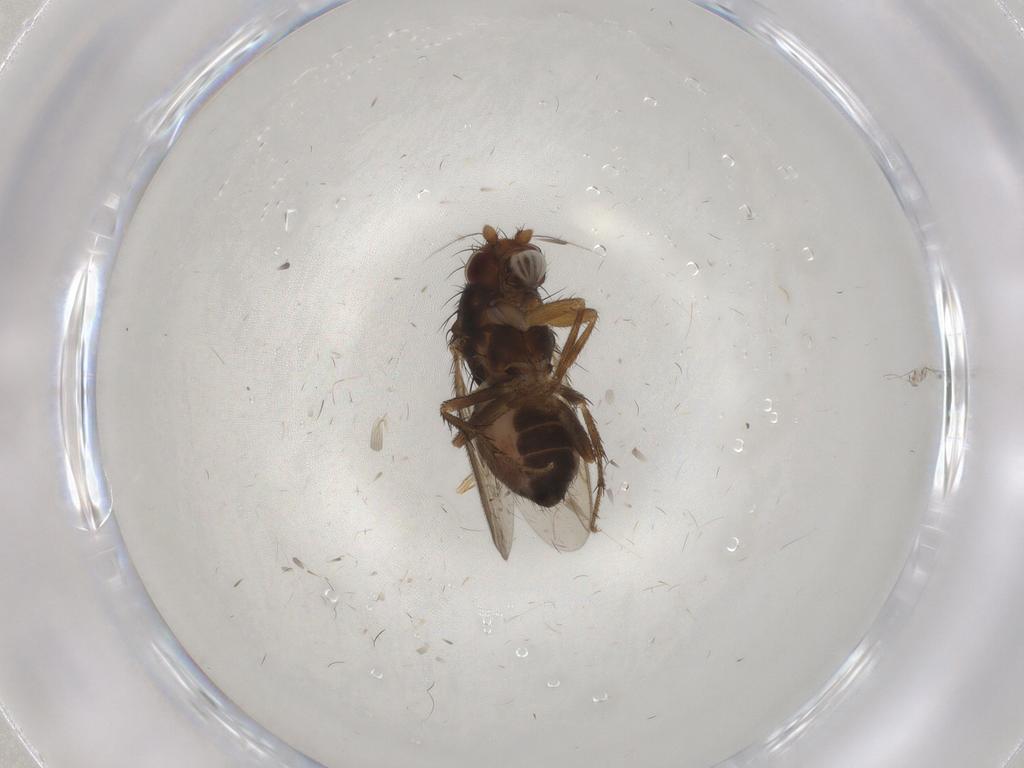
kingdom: Animalia
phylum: Arthropoda
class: Insecta
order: Diptera
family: Sphaeroceridae
